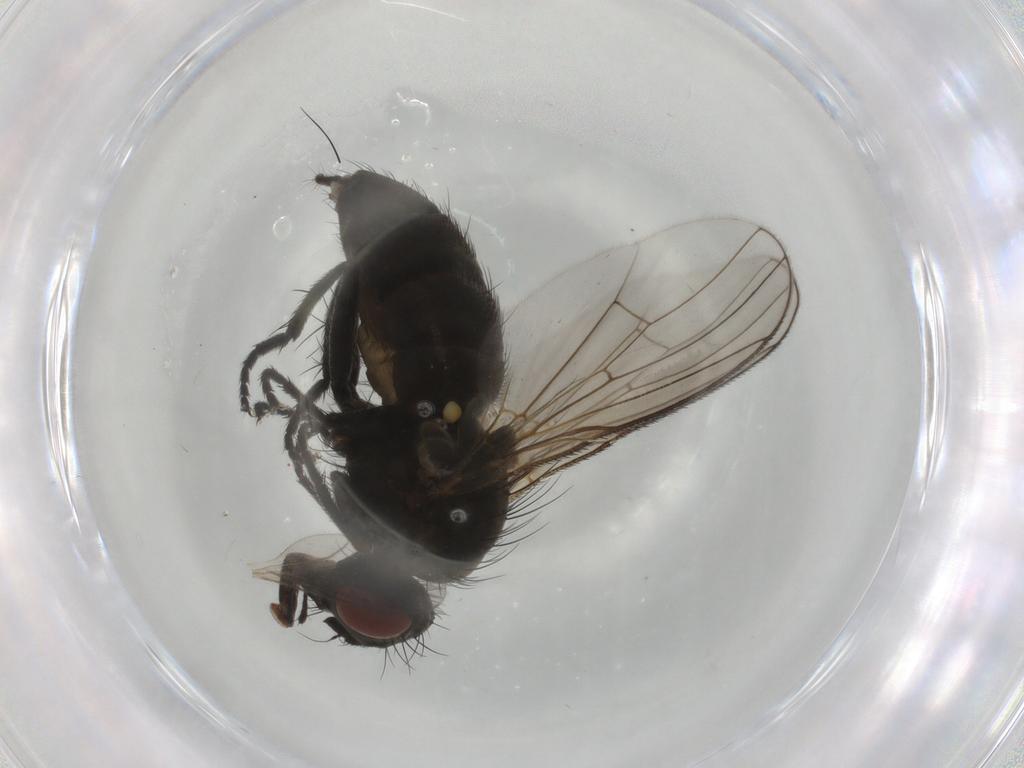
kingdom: Animalia
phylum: Arthropoda
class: Insecta
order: Diptera
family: Muscidae
